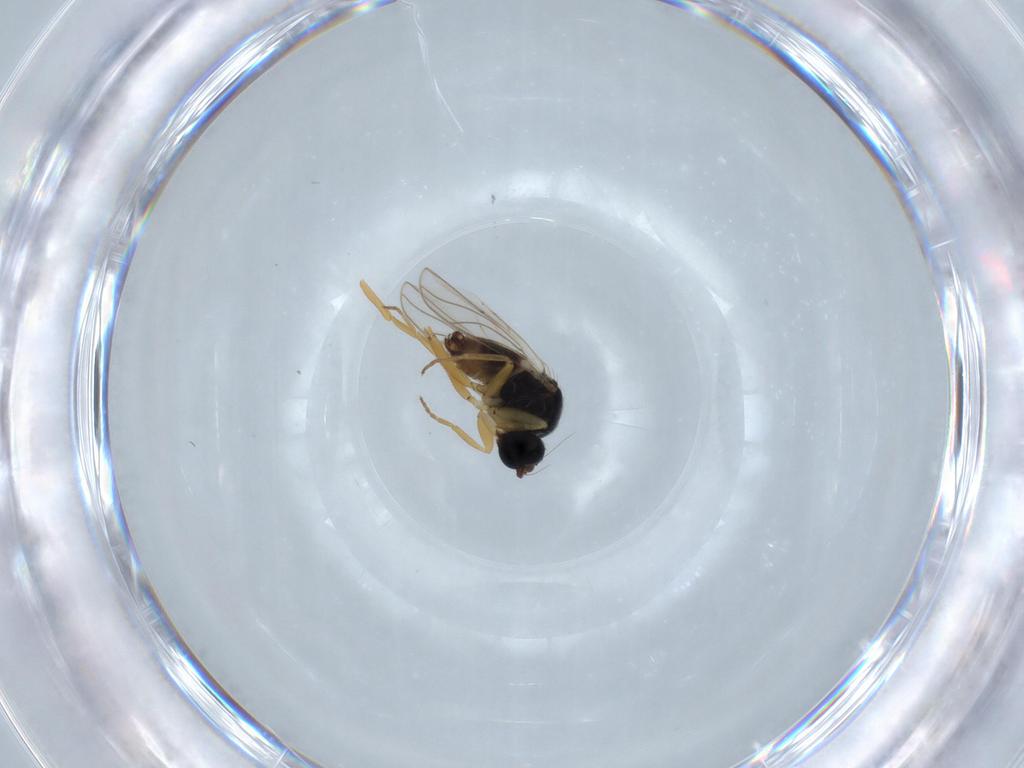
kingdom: Animalia
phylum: Arthropoda
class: Insecta
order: Diptera
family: Hybotidae
